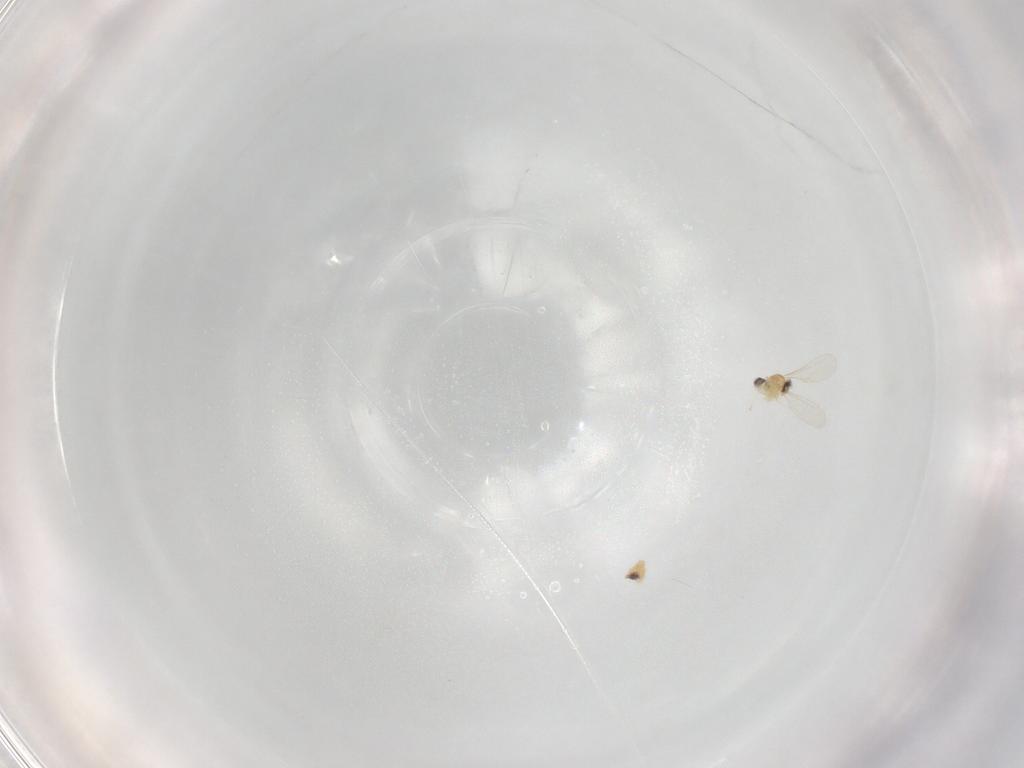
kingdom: Animalia
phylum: Arthropoda
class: Insecta
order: Diptera
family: Cecidomyiidae
